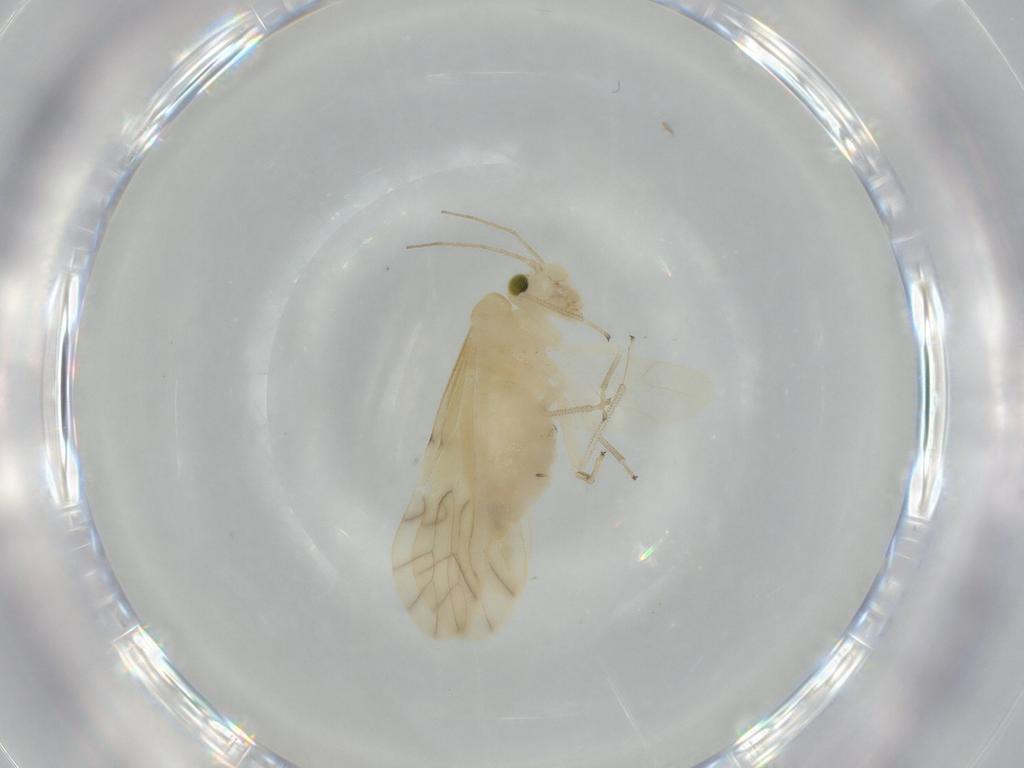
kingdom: Animalia
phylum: Arthropoda
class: Insecta
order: Psocodea
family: Caeciliusidae
